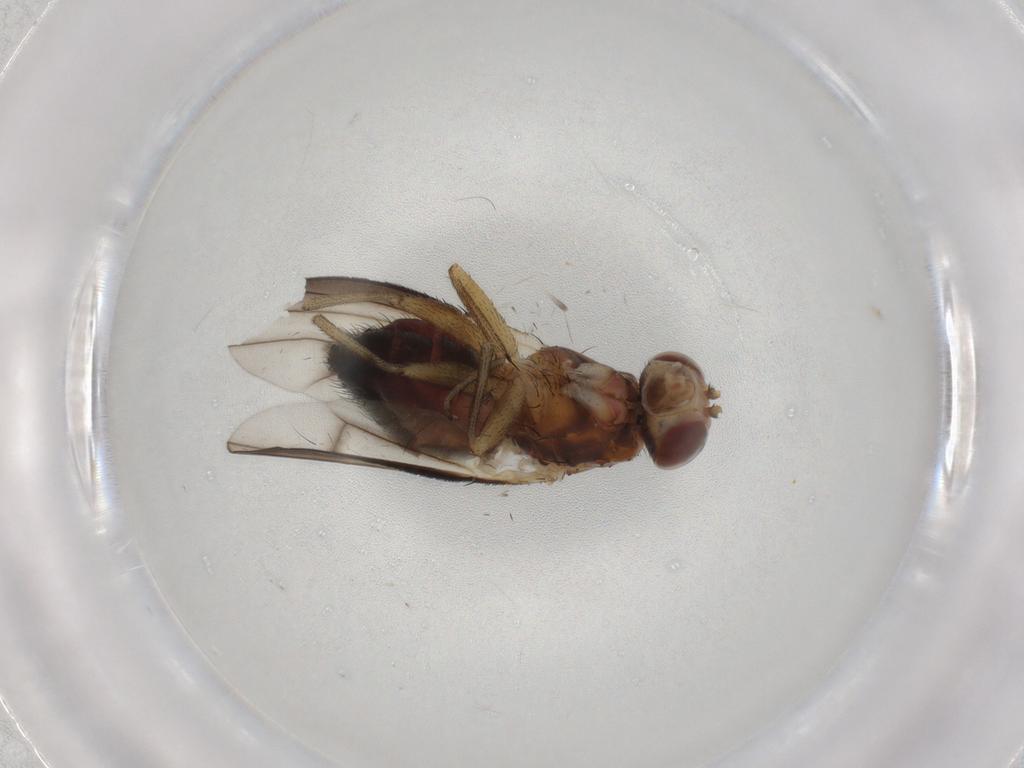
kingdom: Animalia
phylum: Arthropoda
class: Insecta
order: Diptera
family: Heleomyzidae
